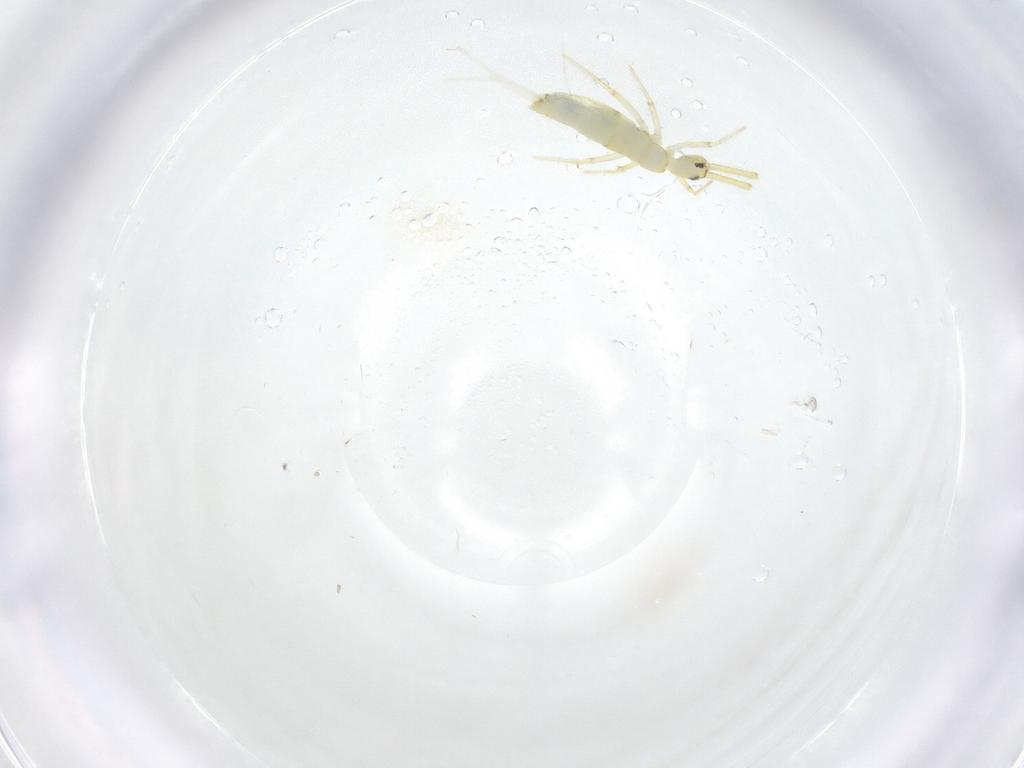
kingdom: Animalia
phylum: Arthropoda
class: Collembola
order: Entomobryomorpha
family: Paronellidae
